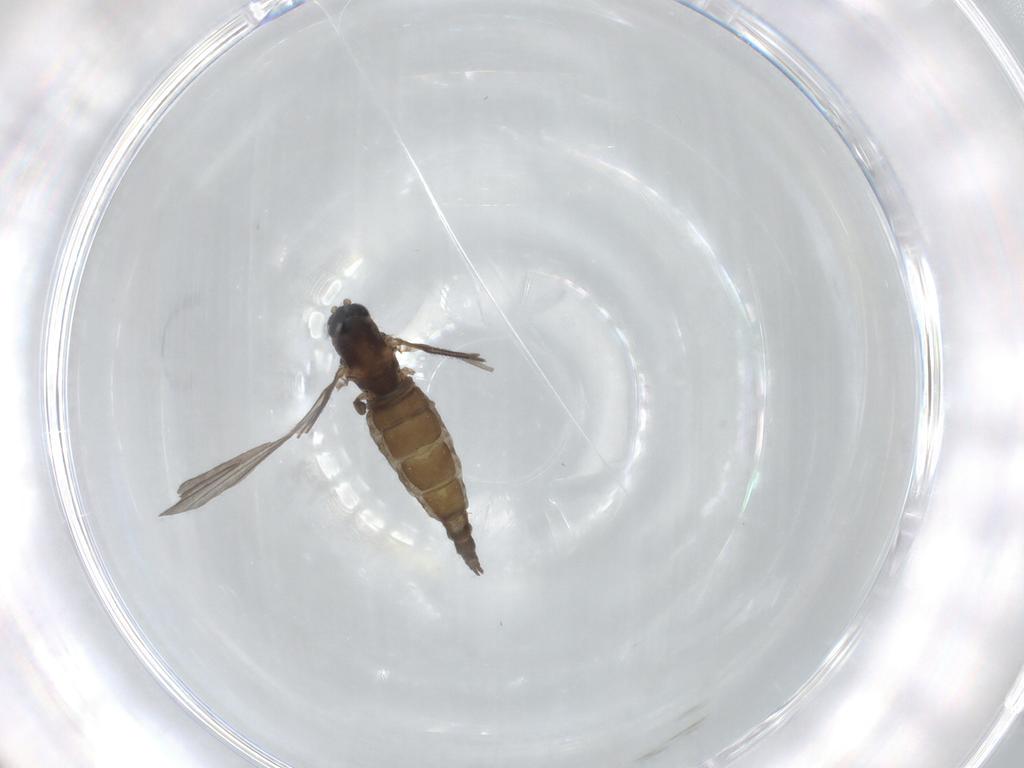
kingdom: Animalia
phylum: Arthropoda
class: Insecta
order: Diptera
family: Sciaridae
